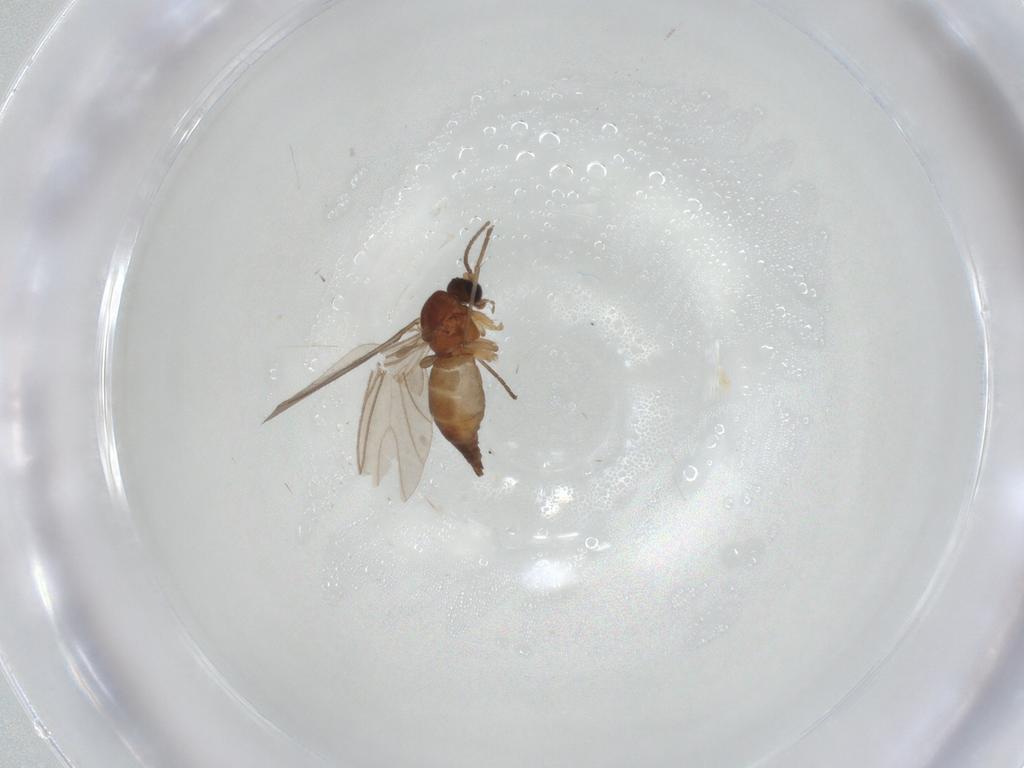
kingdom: Animalia
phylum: Arthropoda
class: Insecta
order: Diptera
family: Sciaridae
